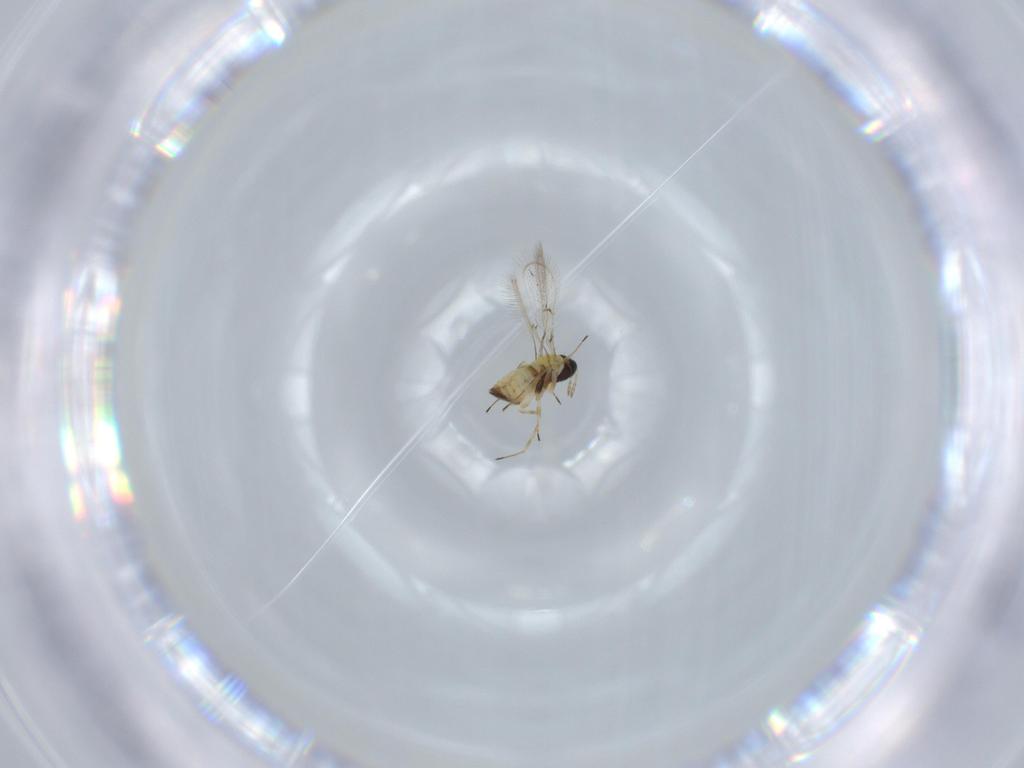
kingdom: Animalia
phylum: Arthropoda
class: Insecta
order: Hymenoptera
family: Trichogrammatidae
